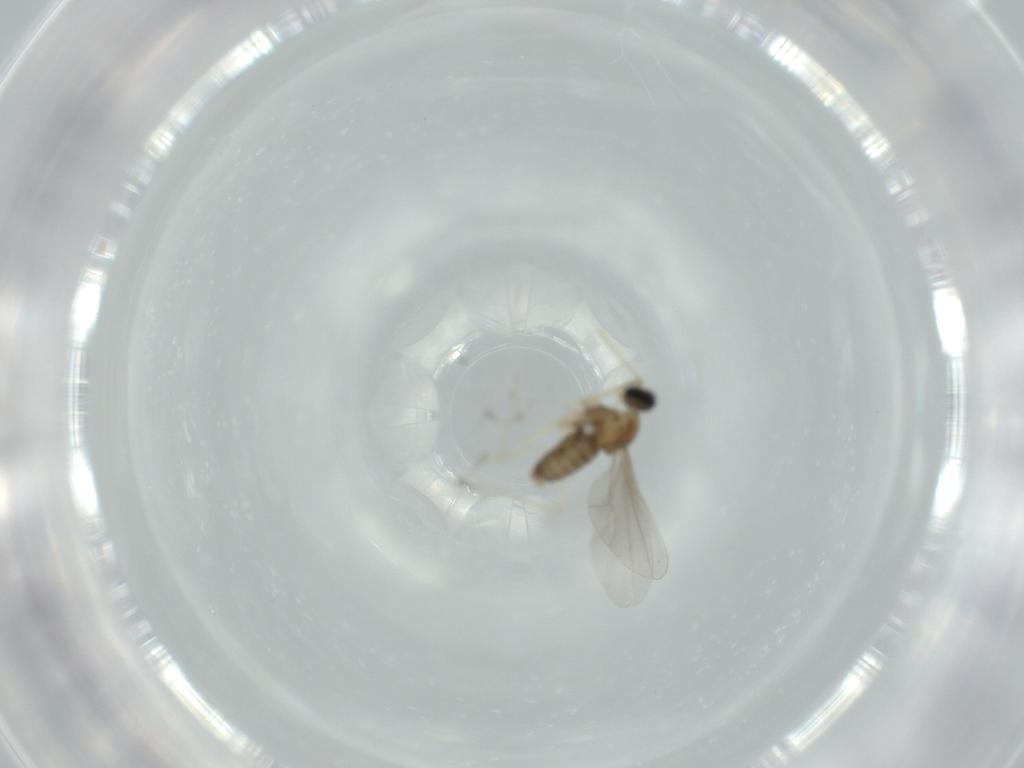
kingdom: Animalia
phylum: Arthropoda
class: Insecta
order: Diptera
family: Cecidomyiidae
